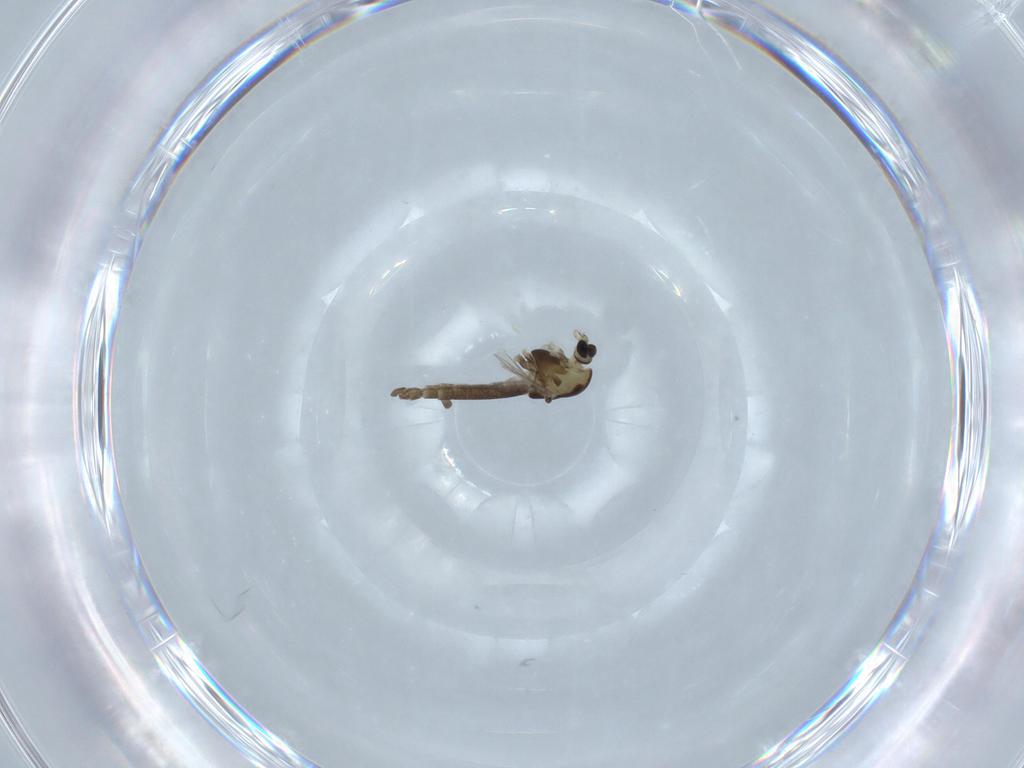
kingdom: Animalia
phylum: Arthropoda
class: Insecta
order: Diptera
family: Chironomidae
